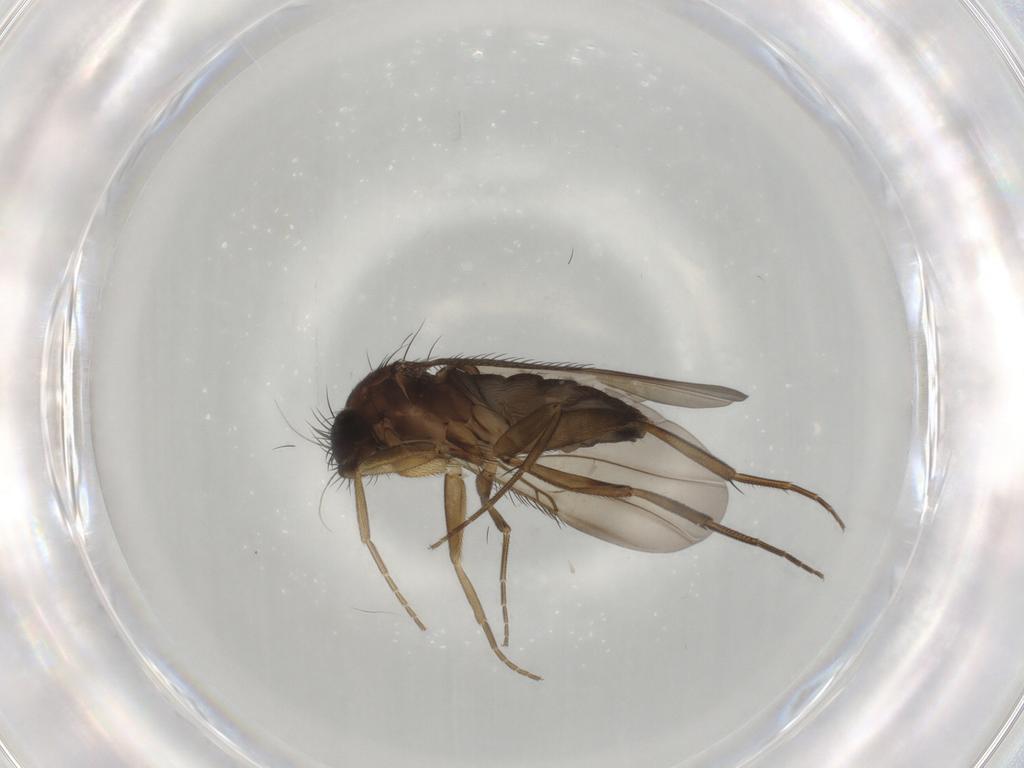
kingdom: Animalia
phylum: Arthropoda
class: Insecta
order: Diptera
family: Phoridae
